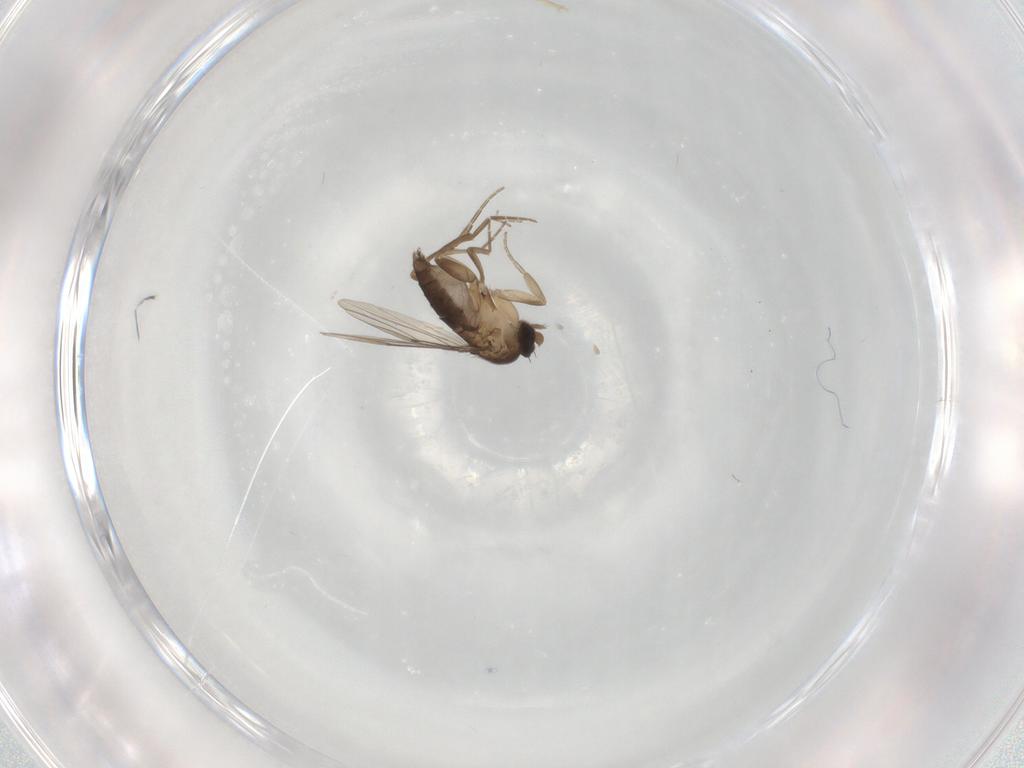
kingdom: Animalia
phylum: Arthropoda
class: Insecta
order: Diptera
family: Phoridae
